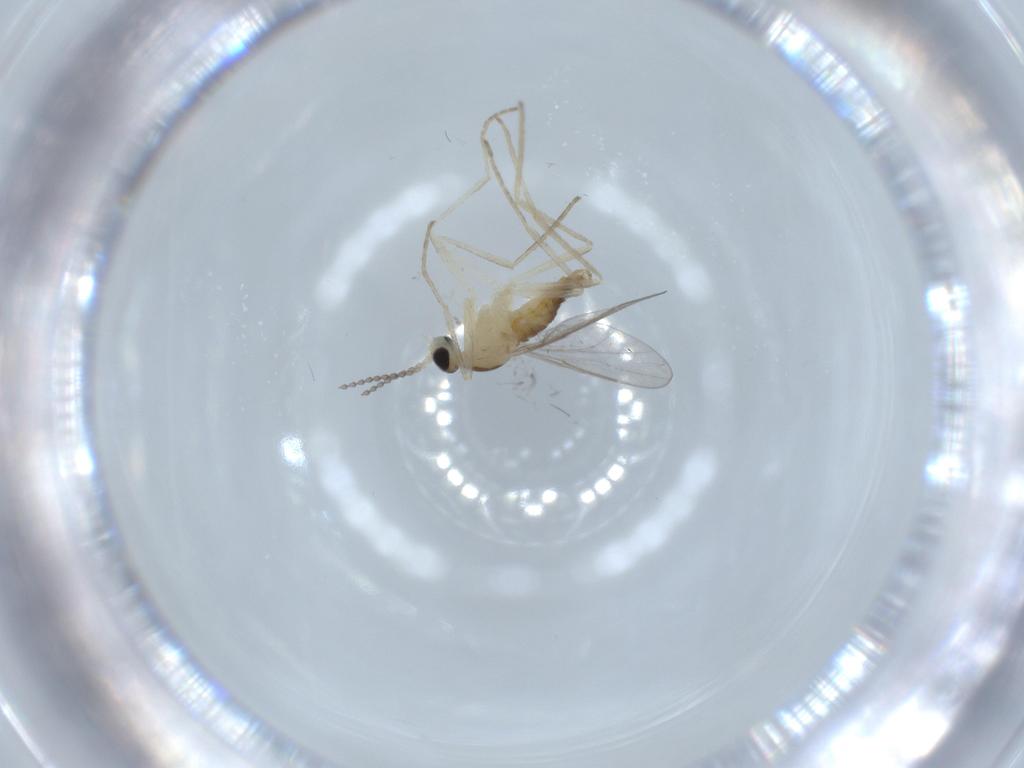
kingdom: Animalia
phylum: Arthropoda
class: Insecta
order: Diptera
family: Cecidomyiidae
